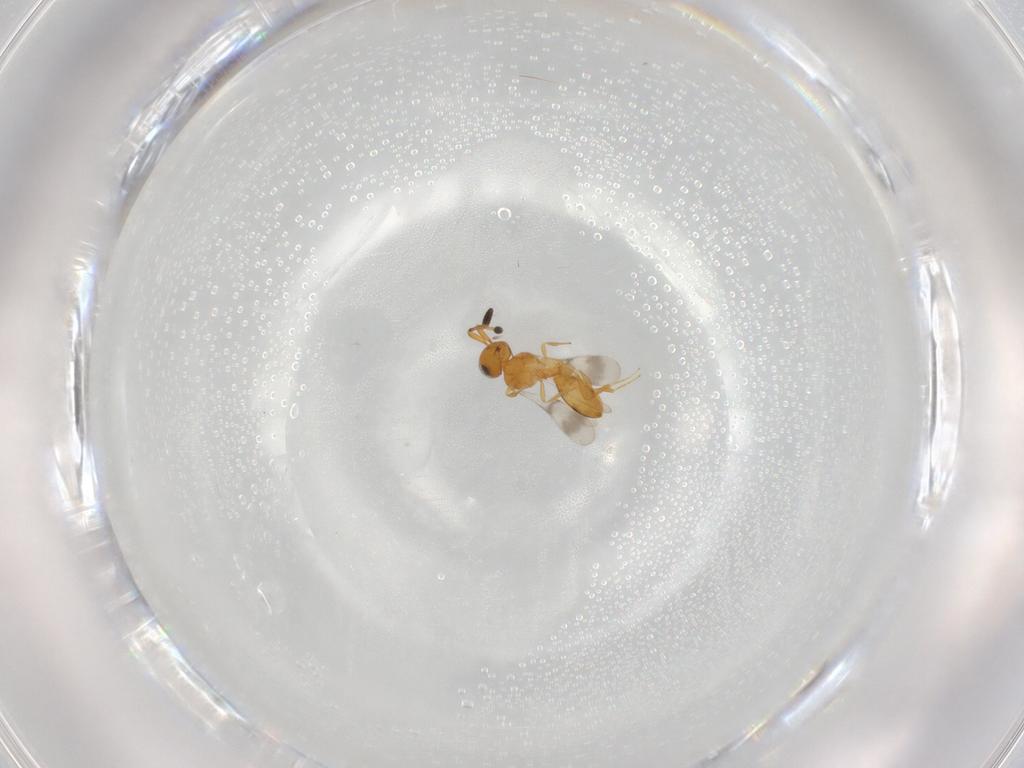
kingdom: Animalia
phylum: Arthropoda
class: Insecta
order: Hymenoptera
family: Scelionidae
